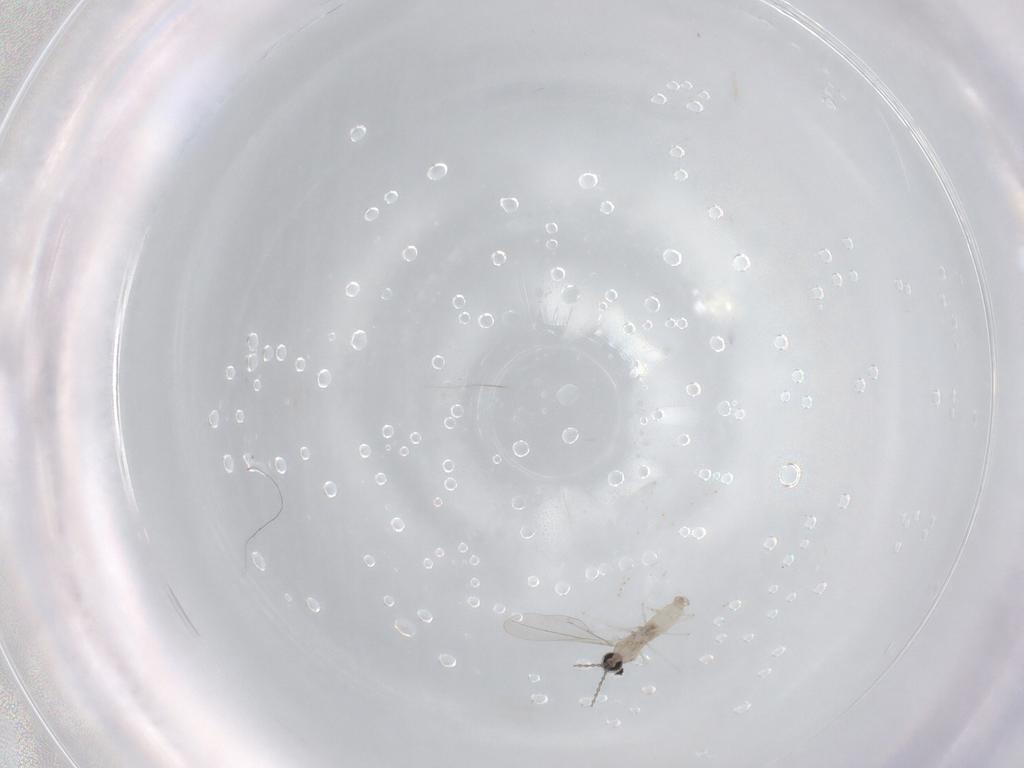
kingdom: Animalia
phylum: Arthropoda
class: Insecta
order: Diptera
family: Cecidomyiidae
